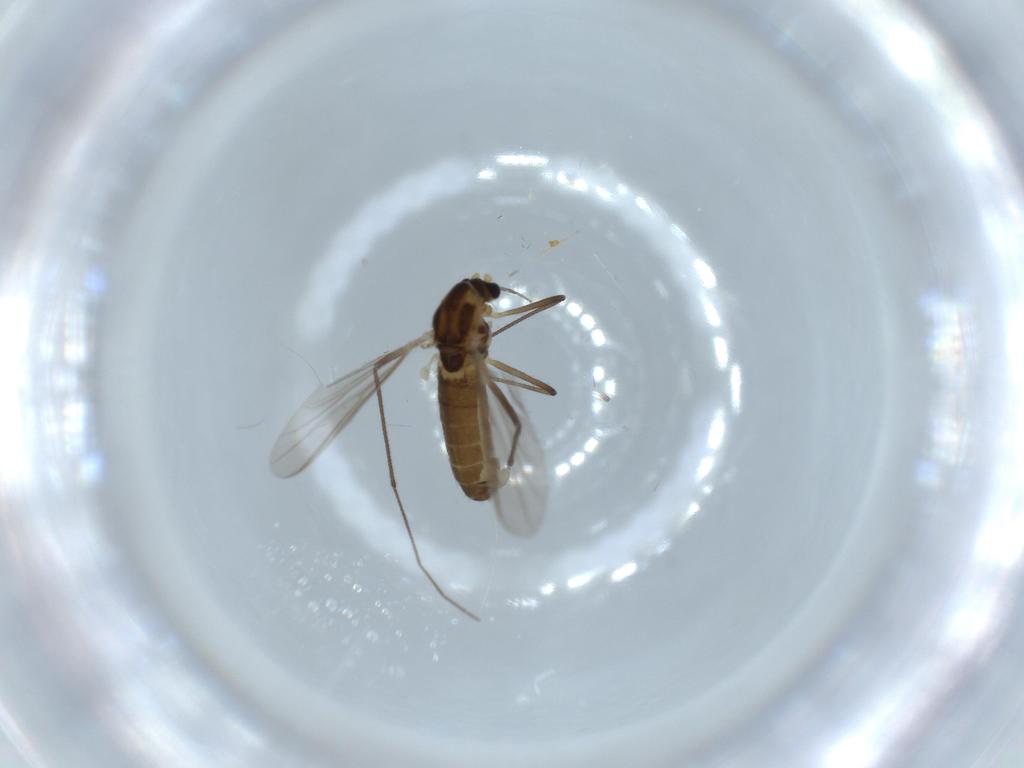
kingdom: Animalia
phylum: Arthropoda
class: Insecta
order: Diptera
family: Chironomidae
